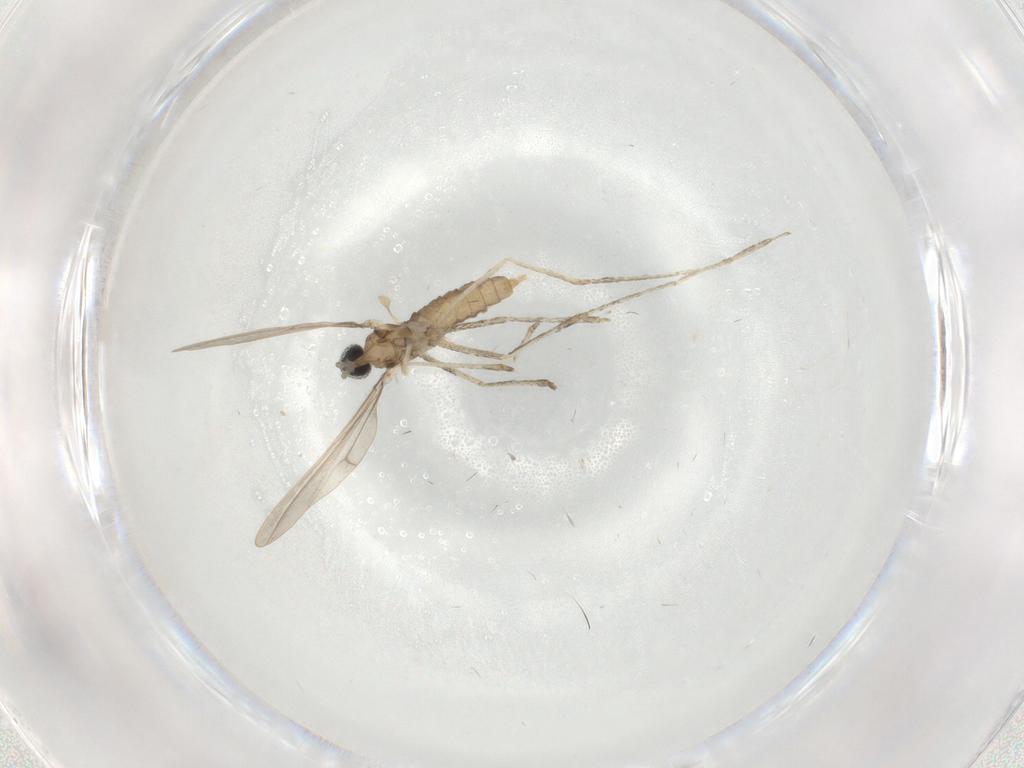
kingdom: Animalia
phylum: Arthropoda
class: Insecta
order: Diptera
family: Cecidomyiidae
